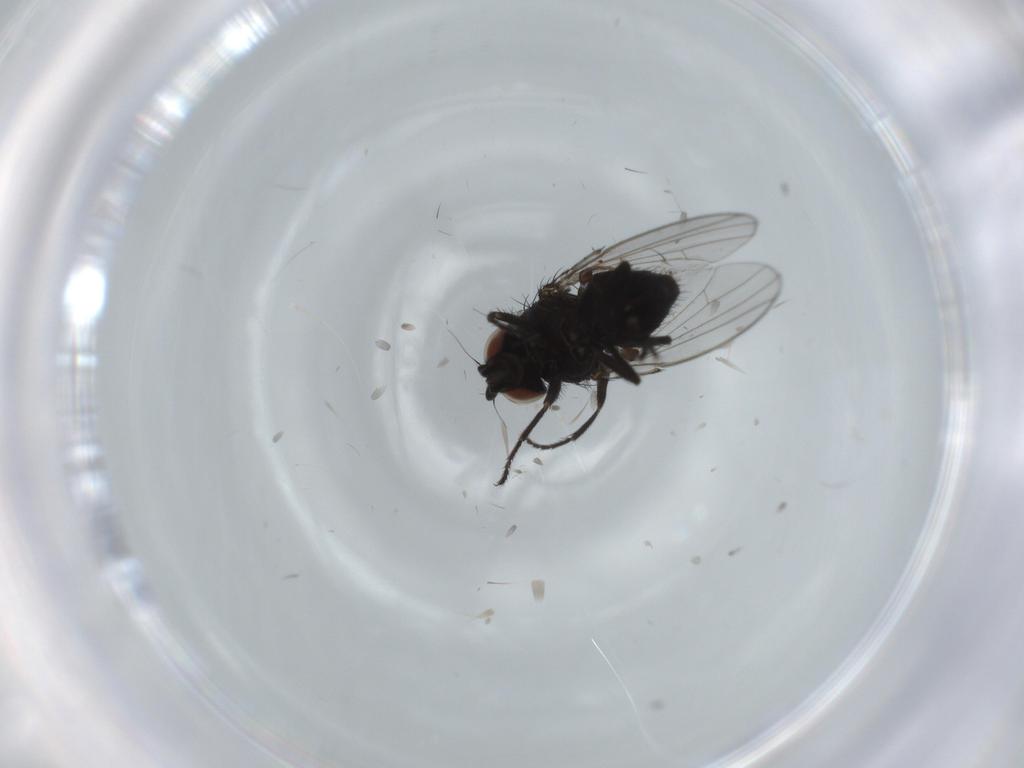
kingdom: Animalia
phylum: Arthropoda
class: Insecta
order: Diptera
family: Milichiidae
